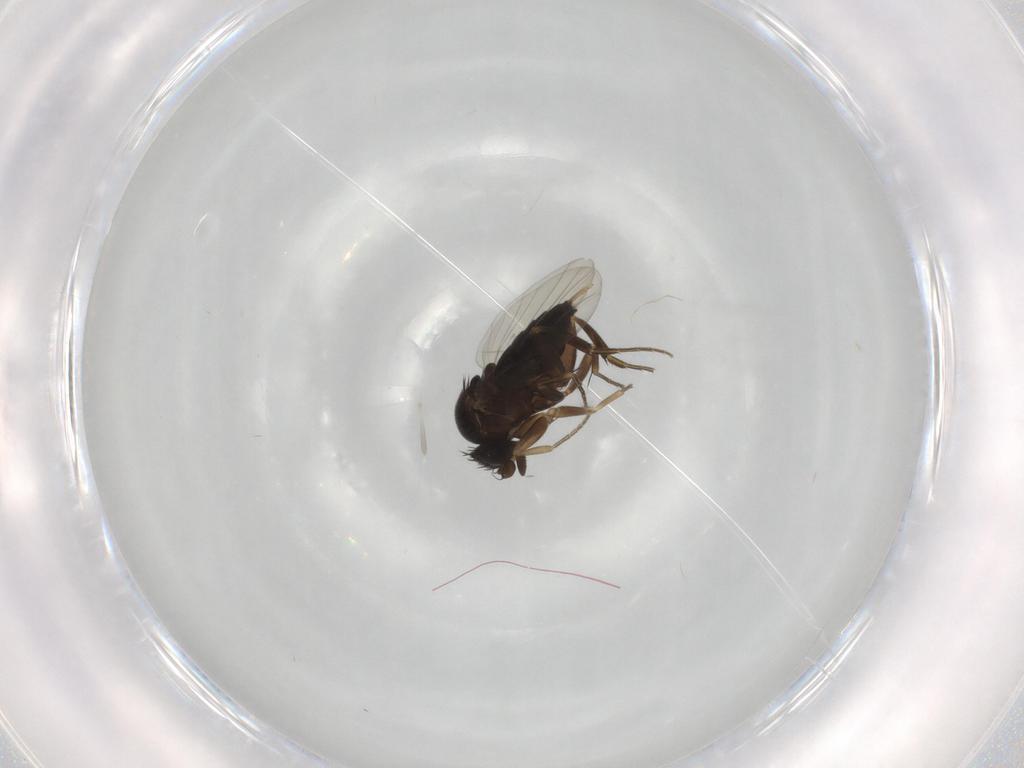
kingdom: Animalia
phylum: Arthropoda
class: Insecta
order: Diptera
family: Phoridae
